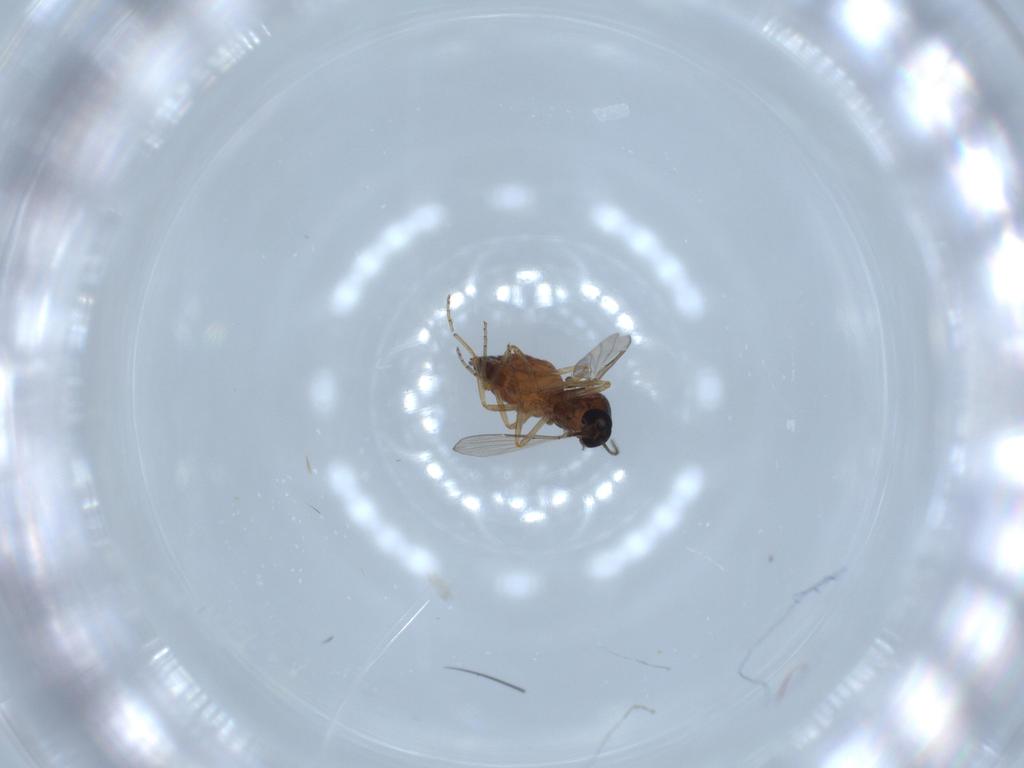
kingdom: Animalia
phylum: Arthropoda
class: Insecta
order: Diptera
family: Ceratopogonidae
